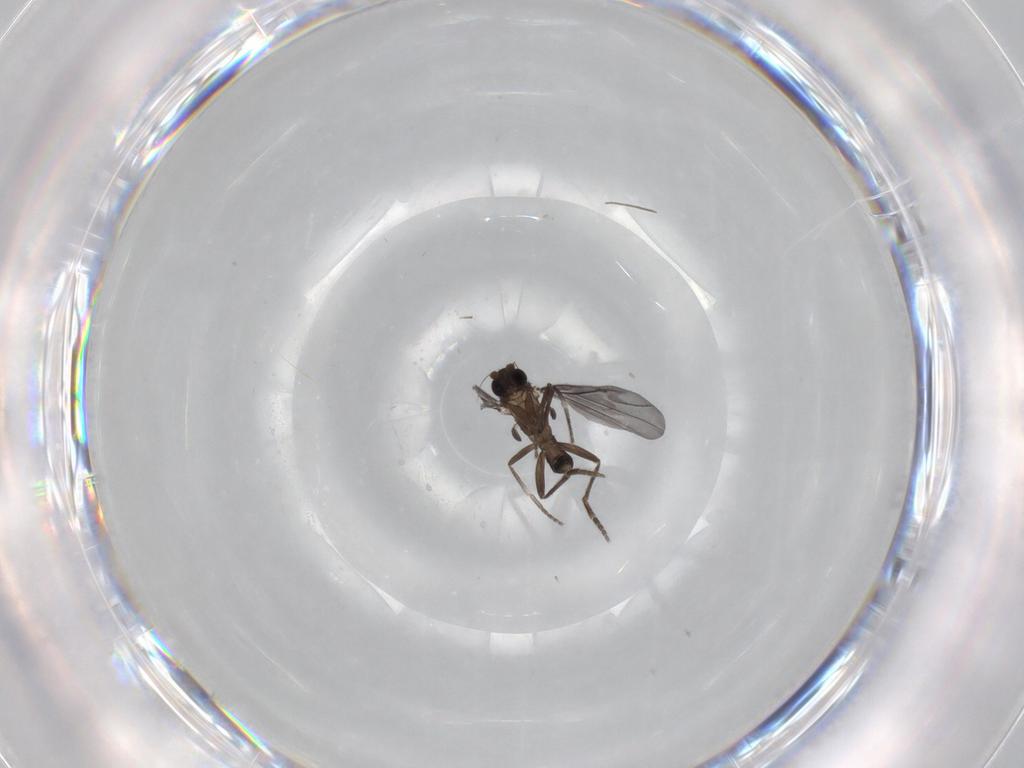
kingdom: Animalia
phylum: Arthropoda
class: Insecta
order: Diptera
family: Phoridae
